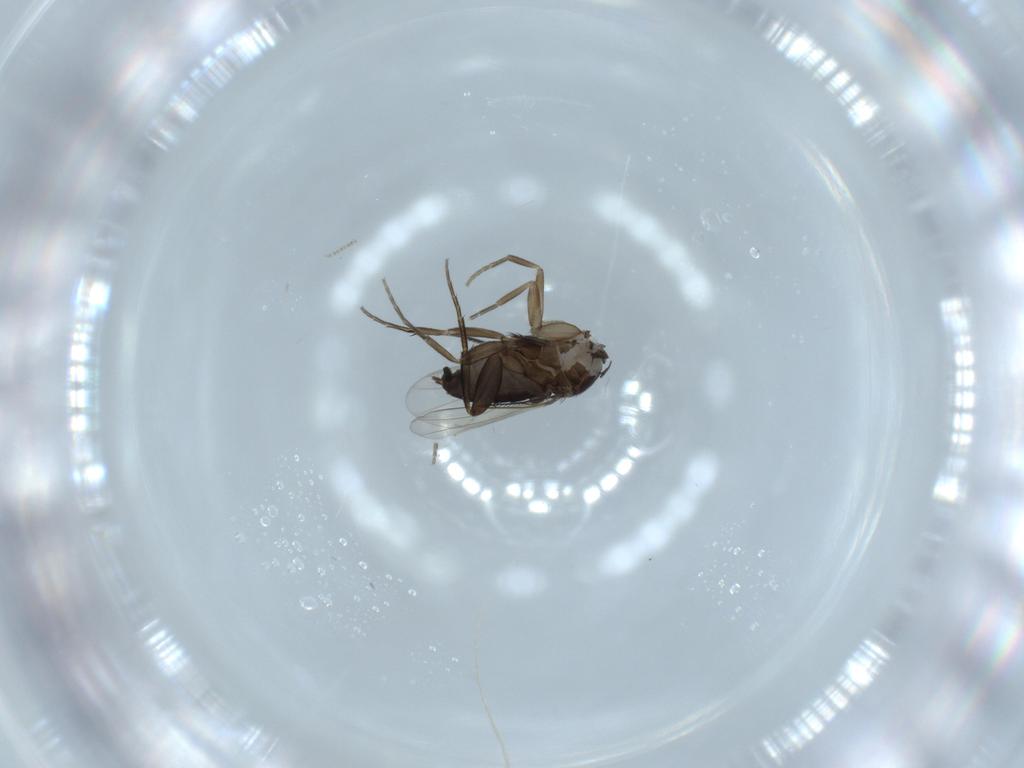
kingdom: Animalia
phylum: Arthropoda
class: Insecta
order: Diptera
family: Phoridae
